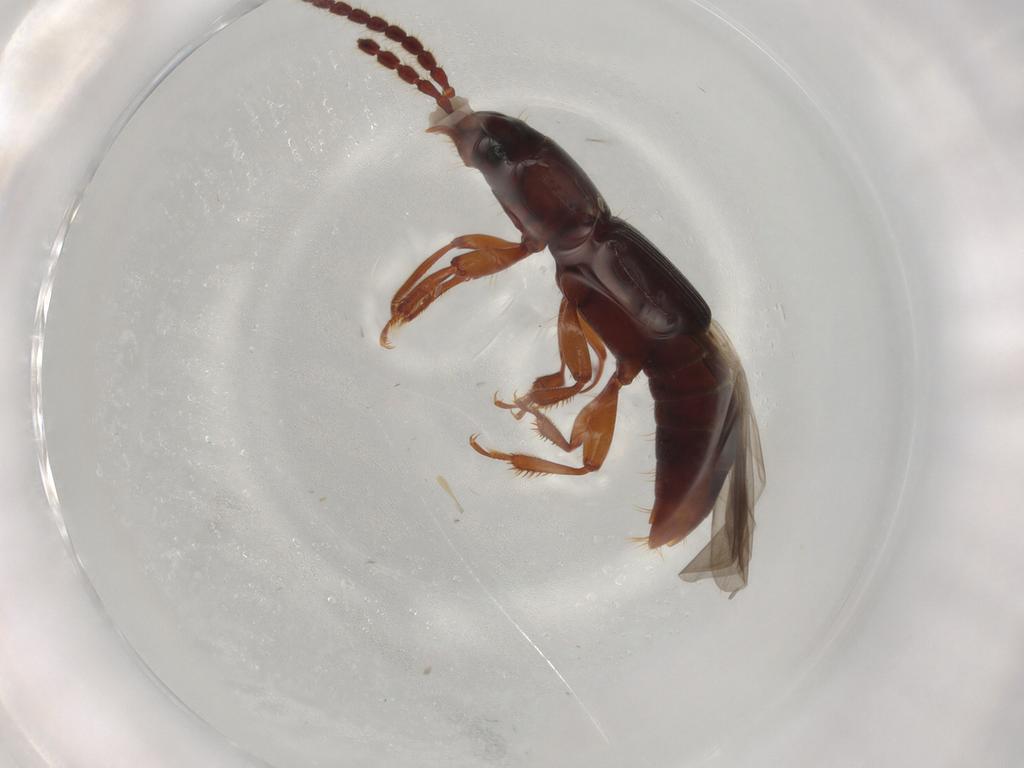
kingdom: Animalia
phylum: Arthropoda
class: Insecta
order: Coleoptera
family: Staphylinidae
